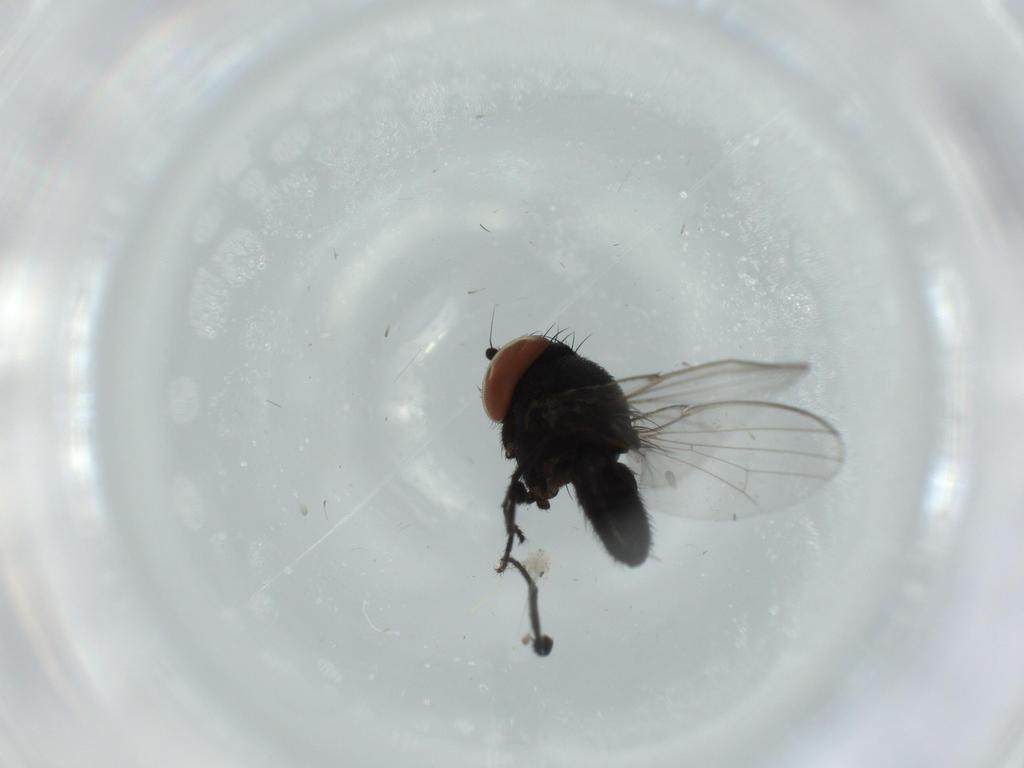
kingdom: Animalia
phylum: Arthropoda
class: Insecta
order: Diptera
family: Milichiidae
